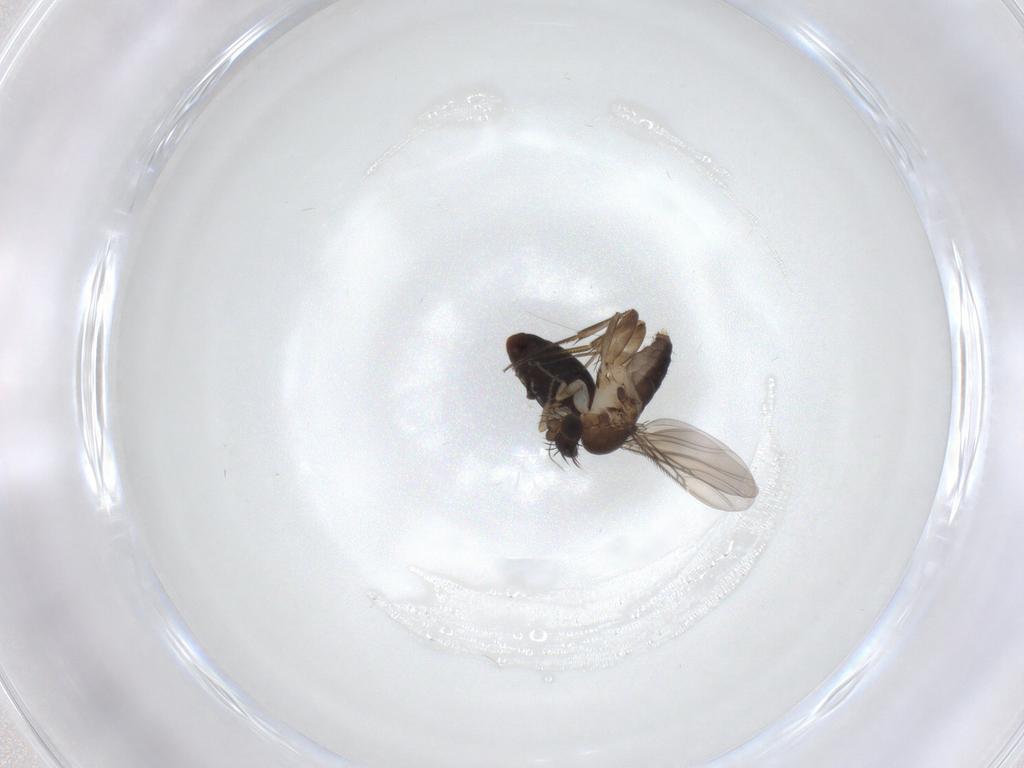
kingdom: Animalia
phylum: Arthropoda
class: Insecta
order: Diptera
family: Phoridae
